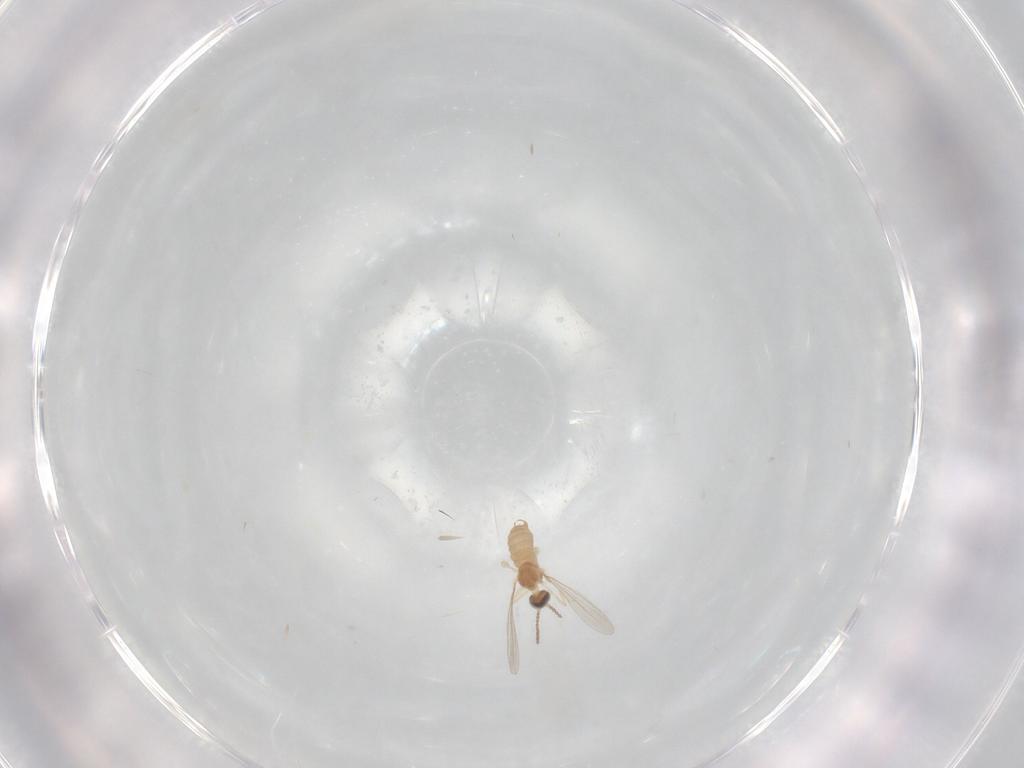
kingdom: Animalia
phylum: Arthropoda
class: Insecta
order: Diptera
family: Cecidomyiidae
